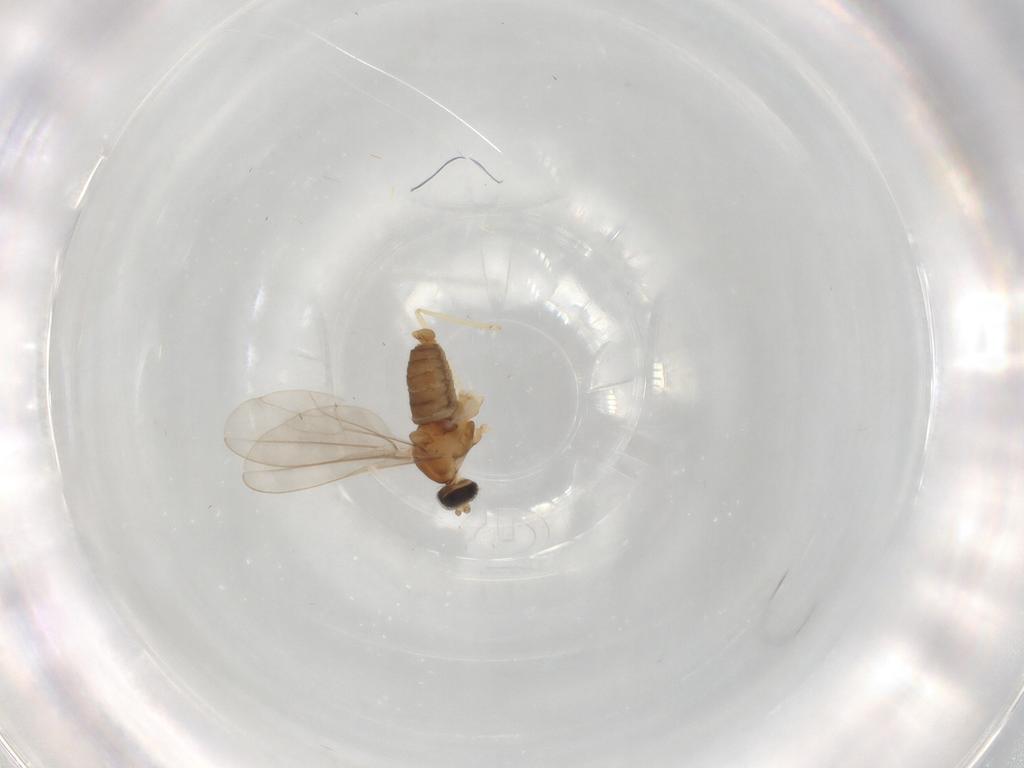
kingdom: Animalia
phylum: Arthropoda
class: Insecta
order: Diptera
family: Cecidomyiidae
